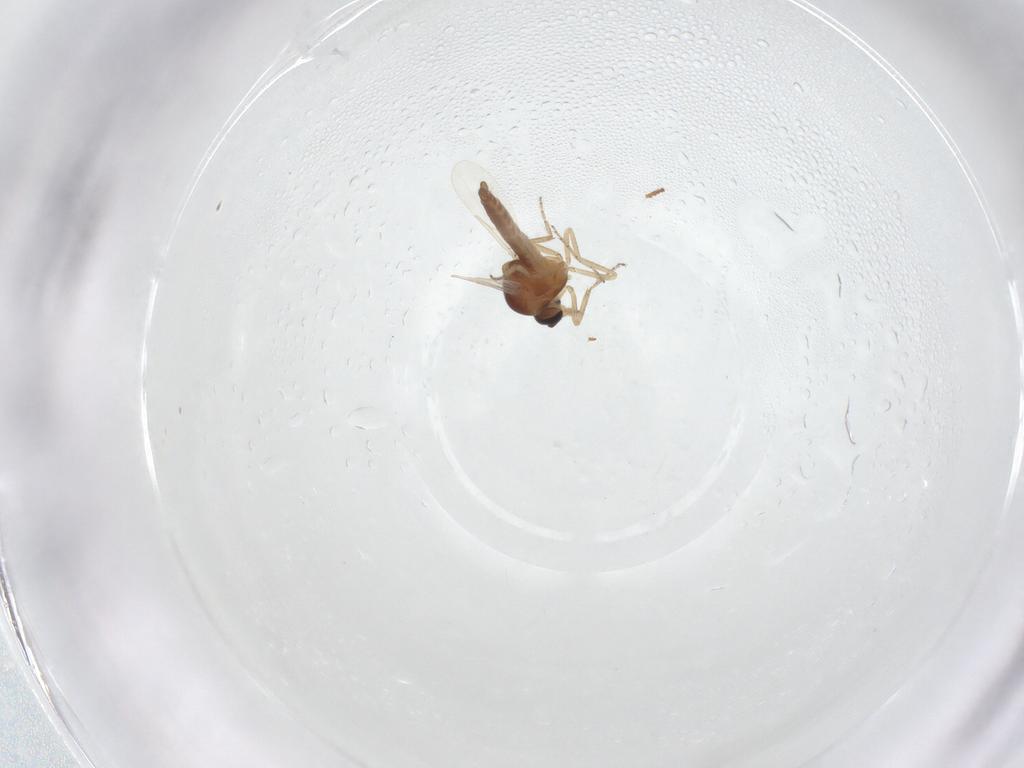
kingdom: Animalia
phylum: Arthropoda
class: Insecta
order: Diptera
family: Ceratopogonidae
